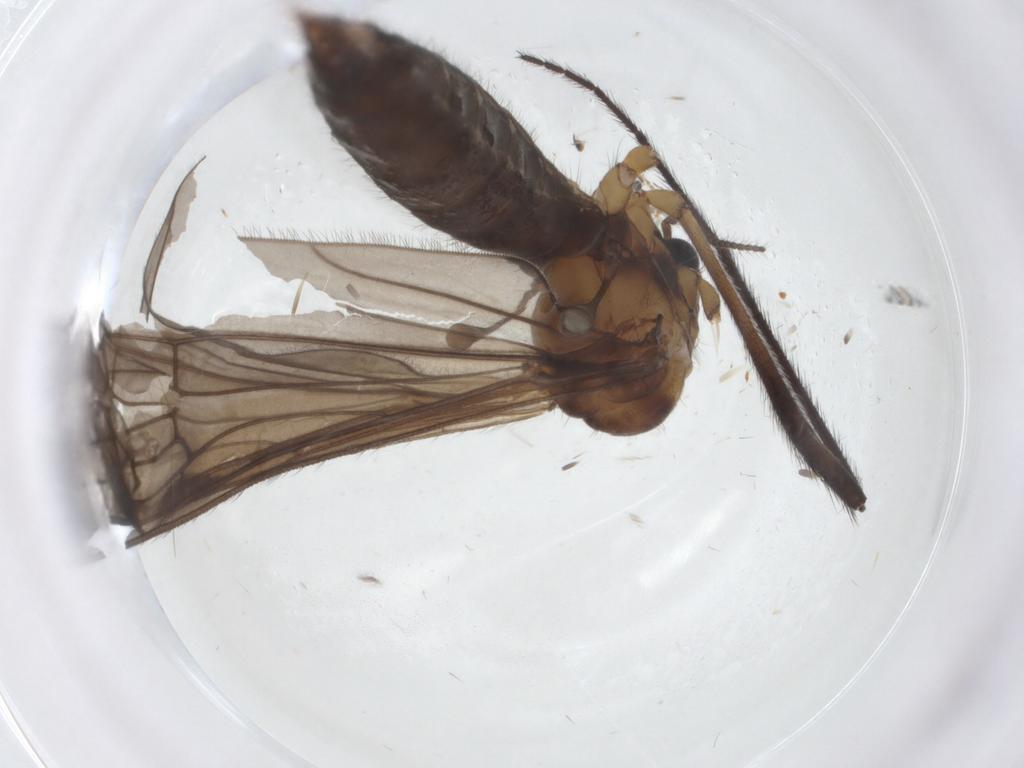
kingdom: Animalia
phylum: Arthropoda
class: Insecta
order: Diptera
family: Limoniidae
